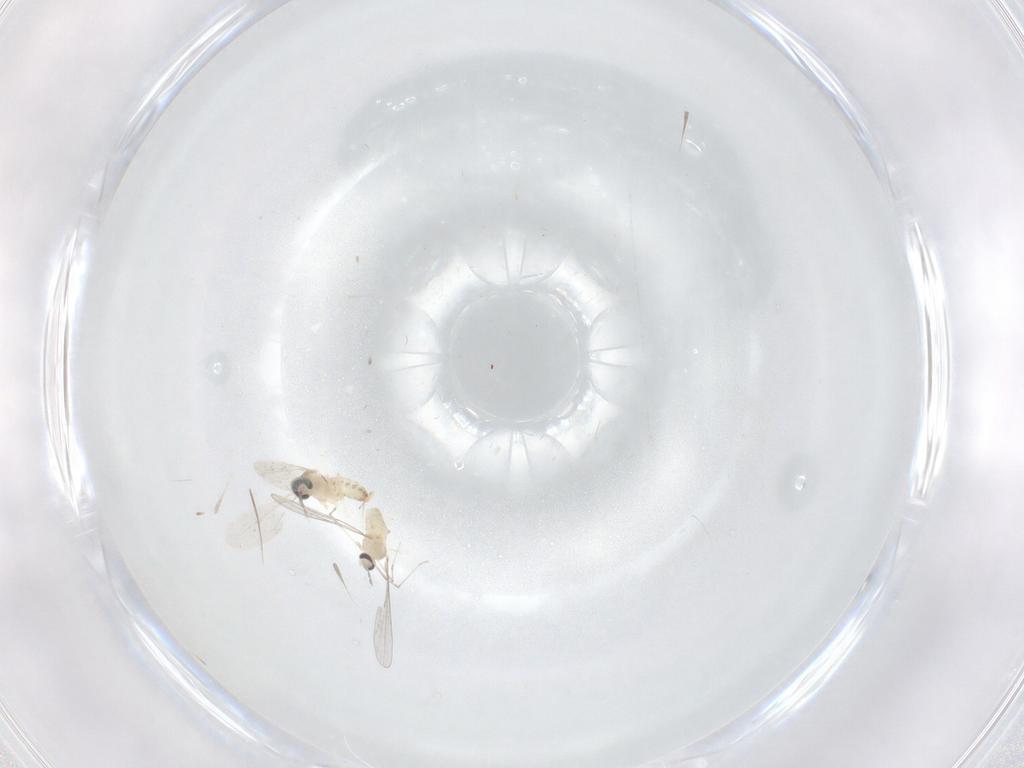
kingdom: Animalia
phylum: Arthropoda
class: Insecta
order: Diptera
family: Cecidomyiidae
